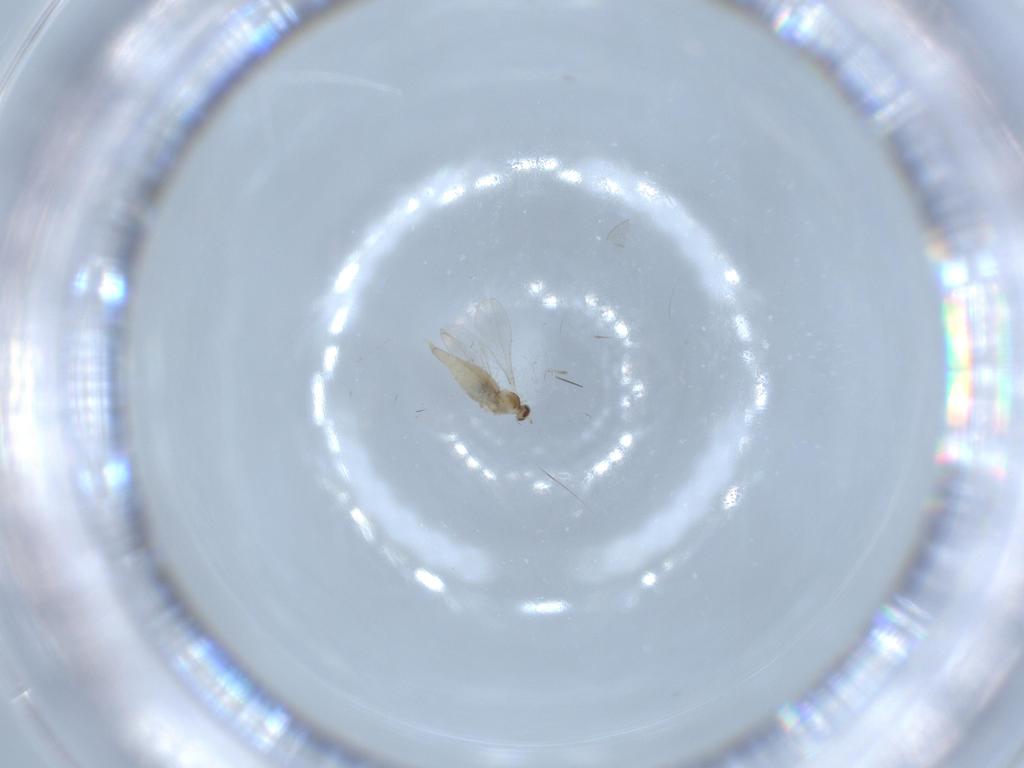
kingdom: Animalia
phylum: Arthropoda
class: Insecta
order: Diptera
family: Cecidomyiidae
